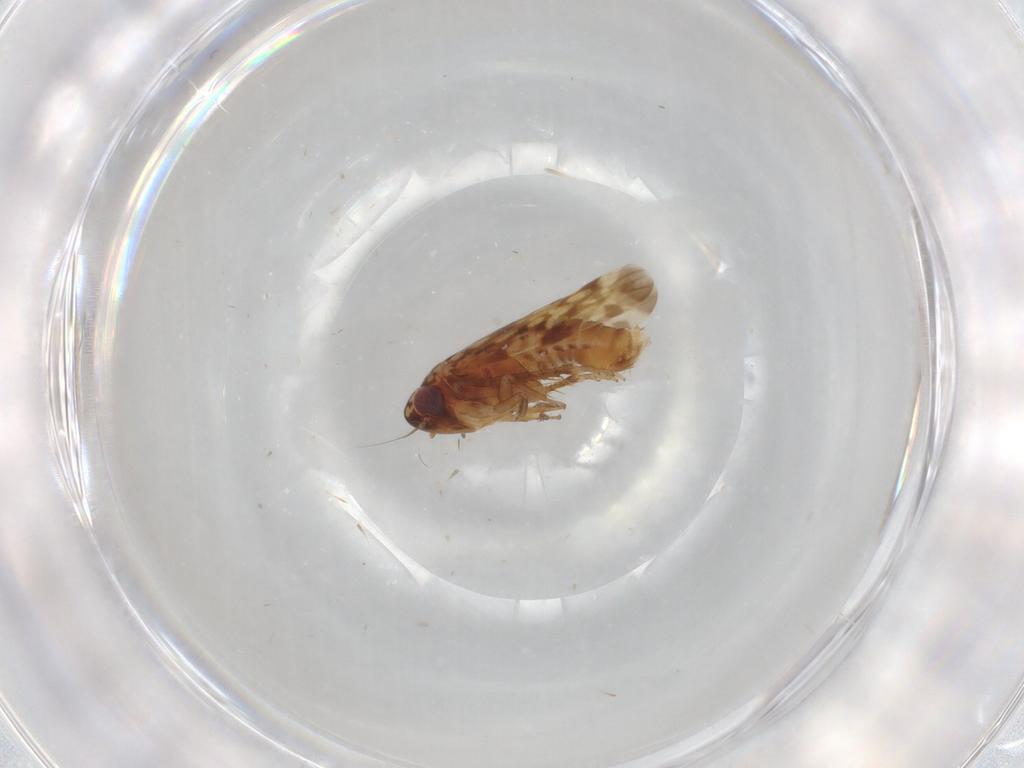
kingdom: Animalia
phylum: Arthropoda
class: Insecta
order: Hemiptera
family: Cicadellidae
